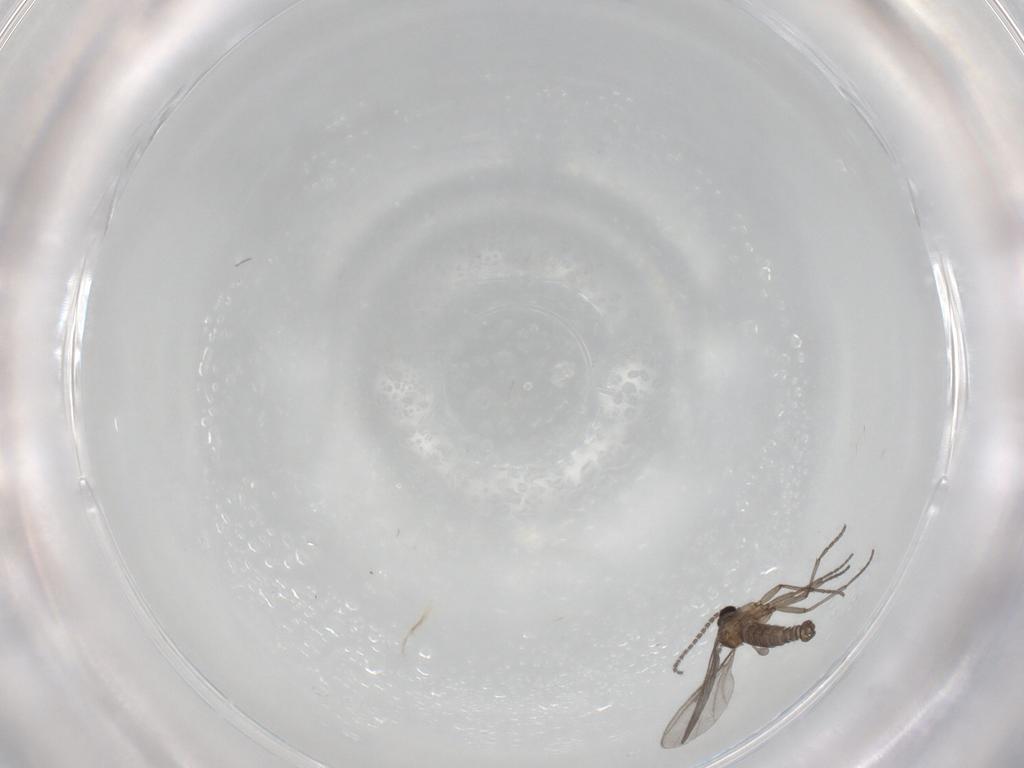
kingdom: Animalia
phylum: Arthropoda
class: Insecta
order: Diptera
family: Sciaridae
